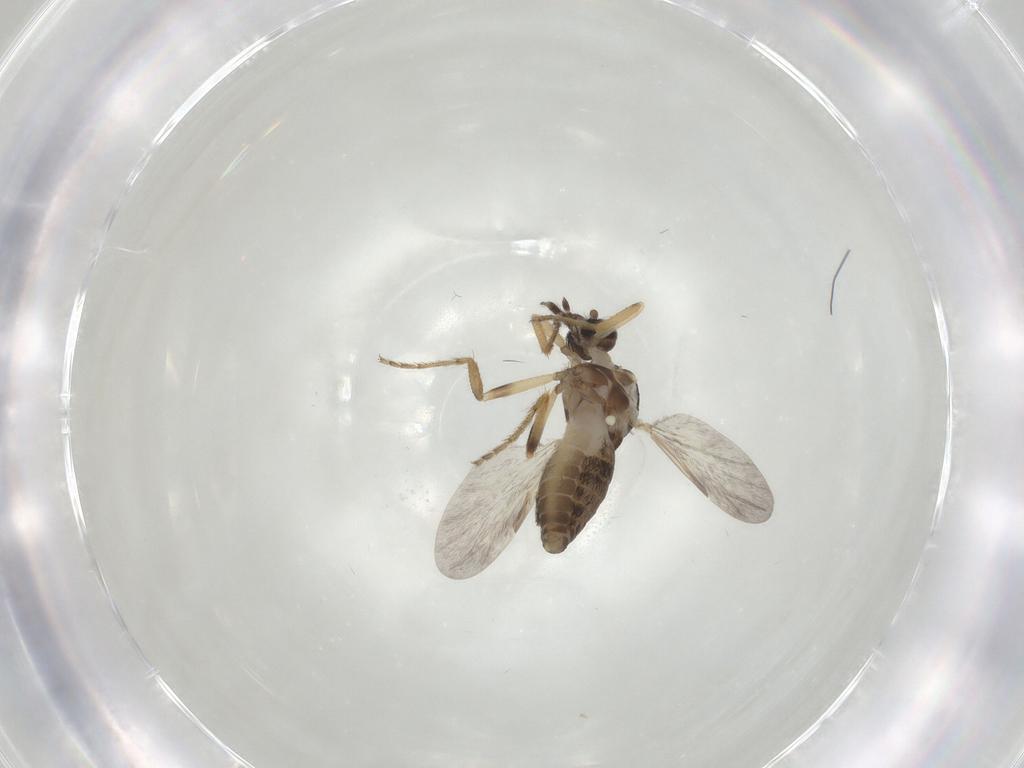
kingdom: Animalia
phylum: Arthropoda
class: Insecta
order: Diptera
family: Ceratopogonidae
